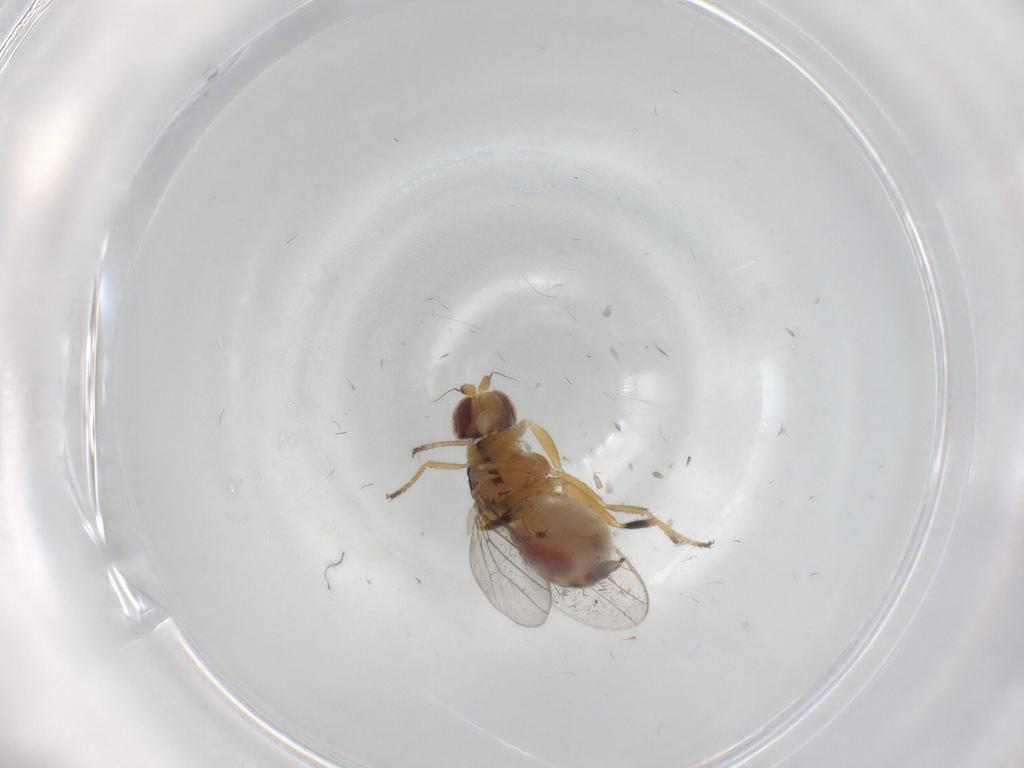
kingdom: Animalia
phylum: Arthropoda
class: Insecta
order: Diptera
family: Chloropidae
